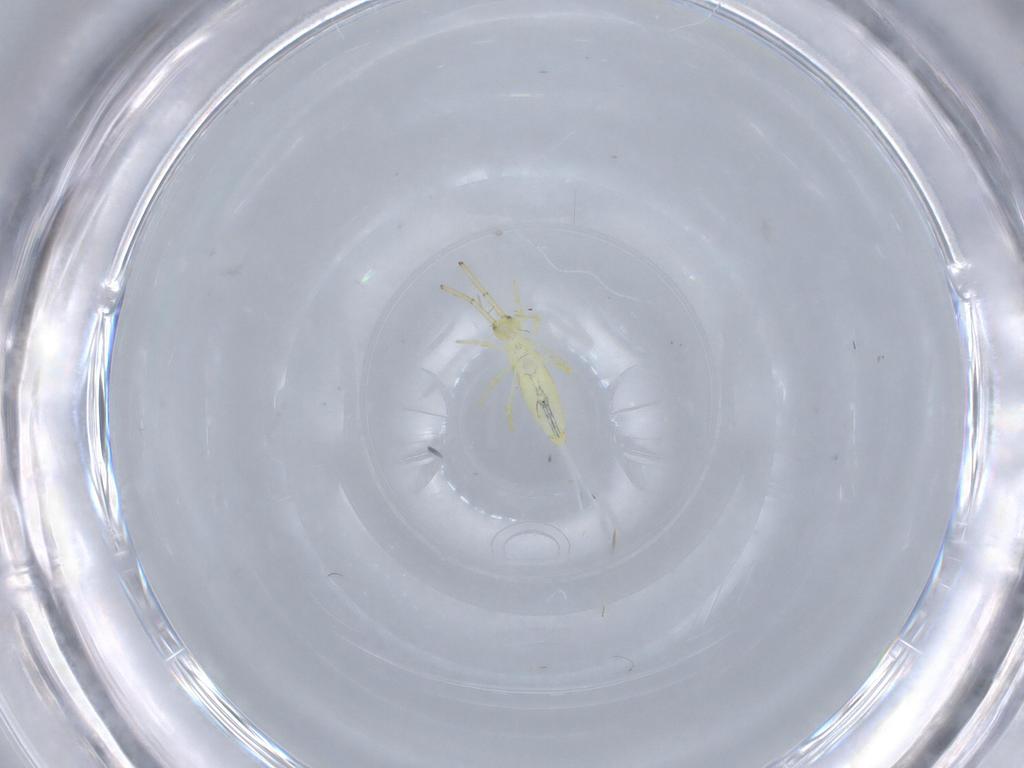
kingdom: Animalia
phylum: Arthropoda
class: Collembola
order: Entomobryomorpha
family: Paronellidae
